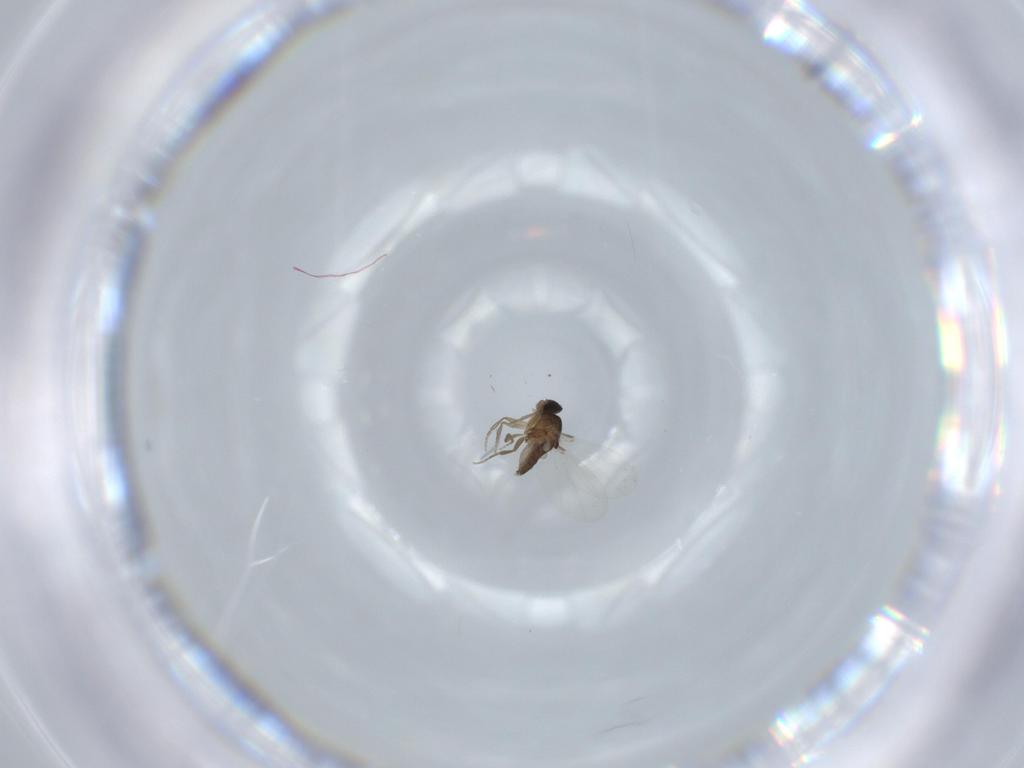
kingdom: Animalia
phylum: Arthropoda
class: Insecta
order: Diptera
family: Phoridae
